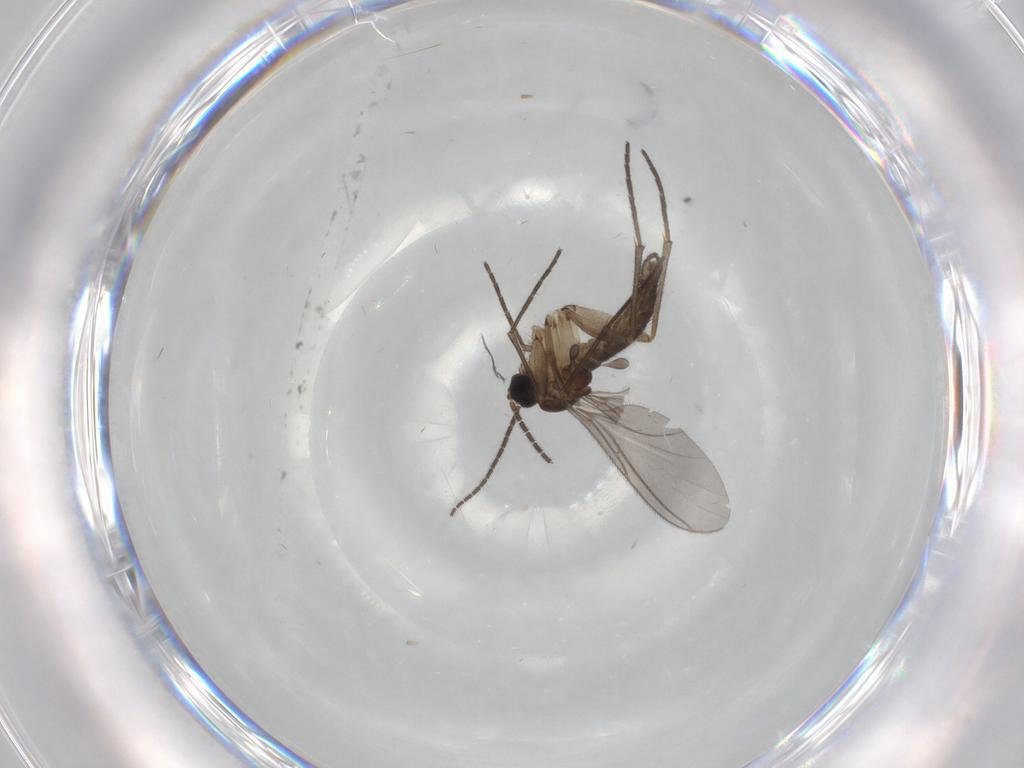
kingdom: Animalia
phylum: Arthropoda
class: Insecta
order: Diptera
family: Sciaridae
